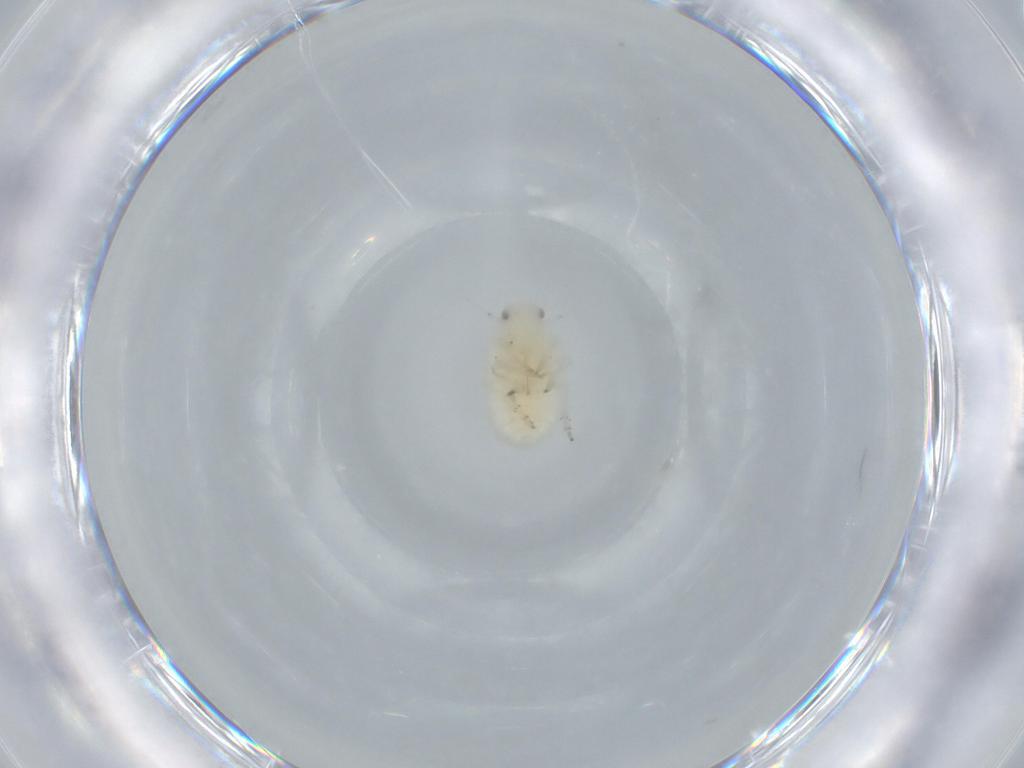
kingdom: Animalia
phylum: Arthropoda
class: Insecta
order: Hemiptera
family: Flatidae
